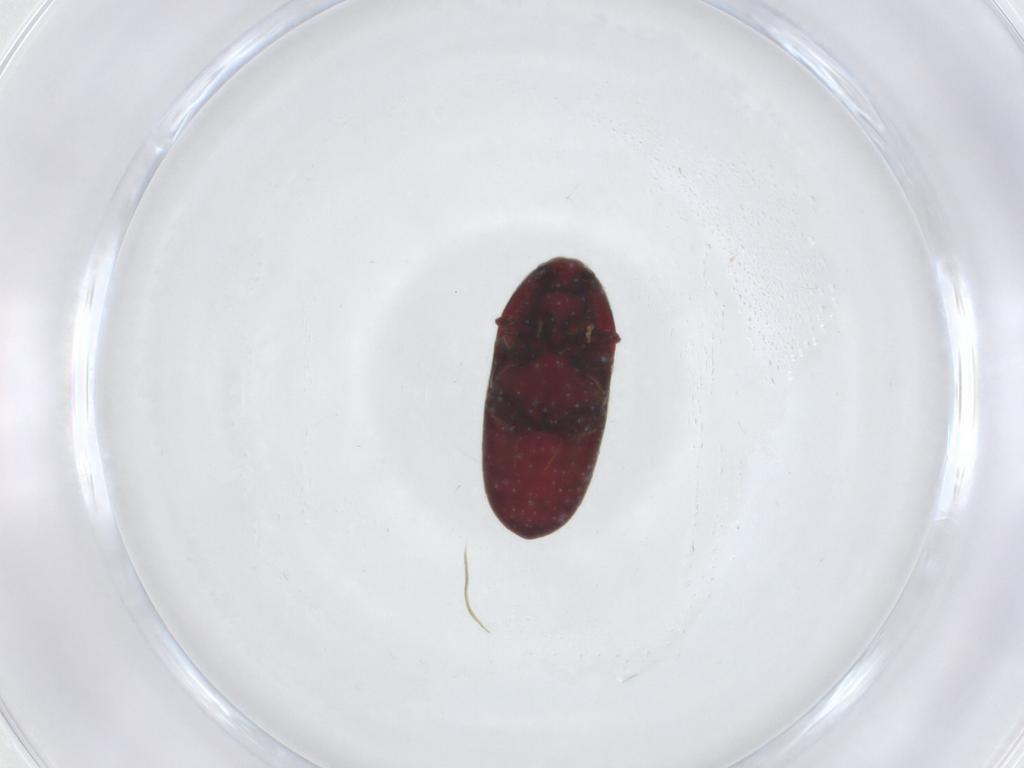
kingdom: Animalia
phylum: Arthropoda
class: Insecta
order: Coleoptera
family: Throscidae
